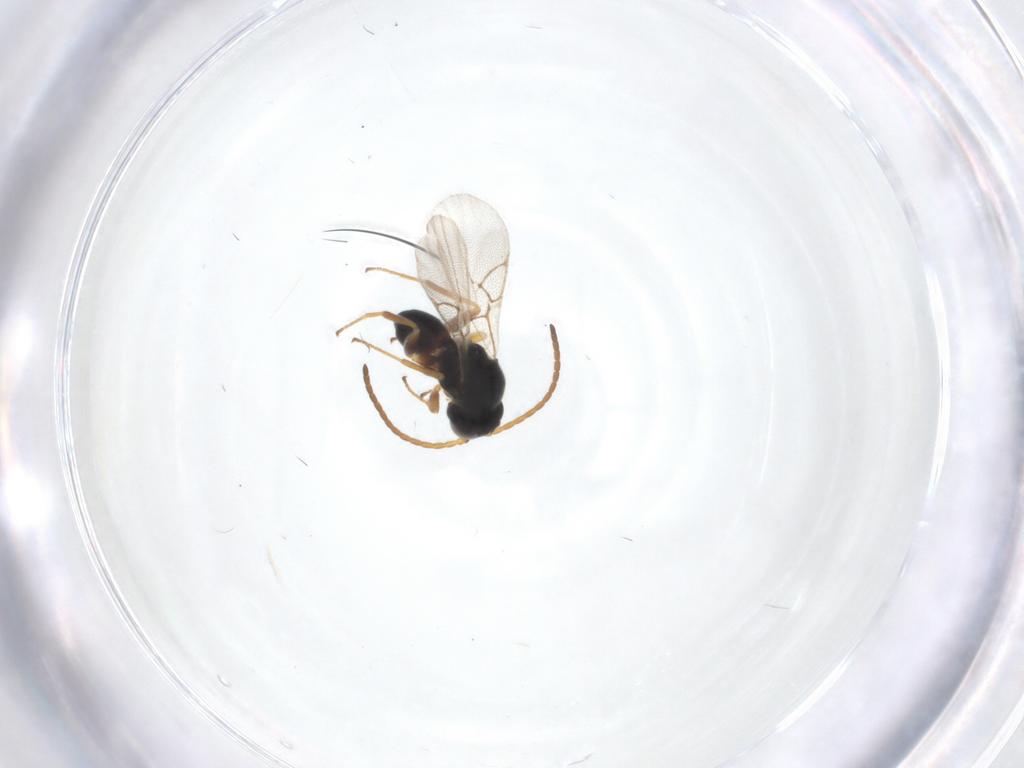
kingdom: Animalia
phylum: Arthropoda
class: Insecta
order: Hymenoptera
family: Cynipidae
